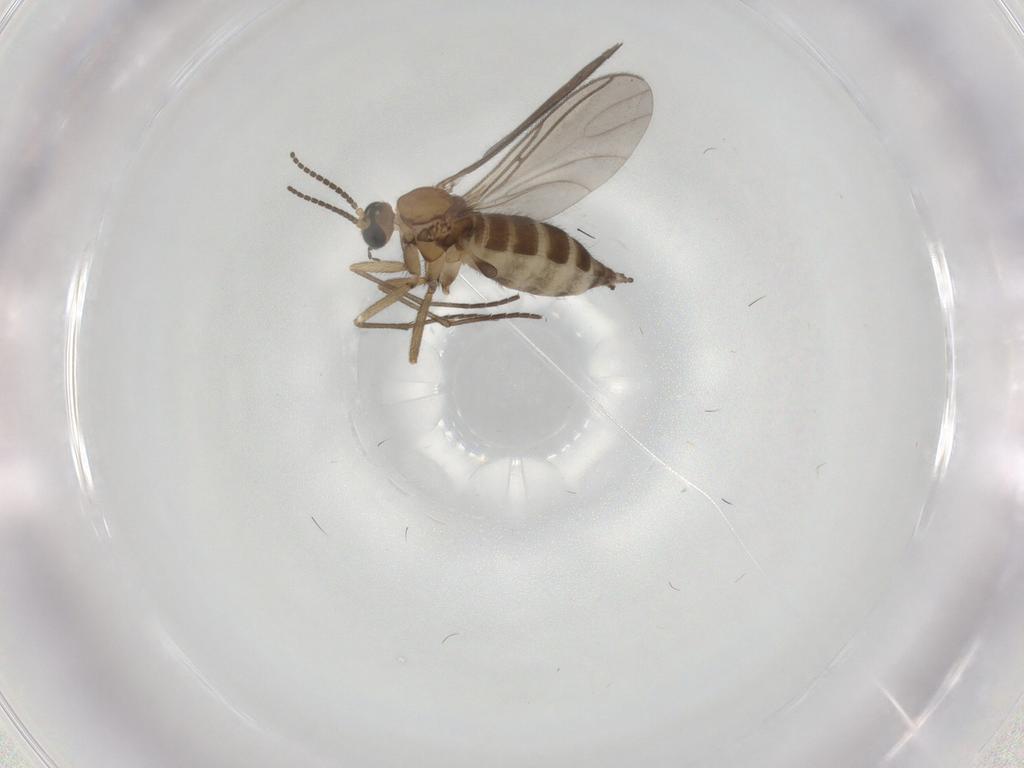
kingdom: Animalia
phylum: Arthropoda
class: Insecta
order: Diptera
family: Sciaridae
